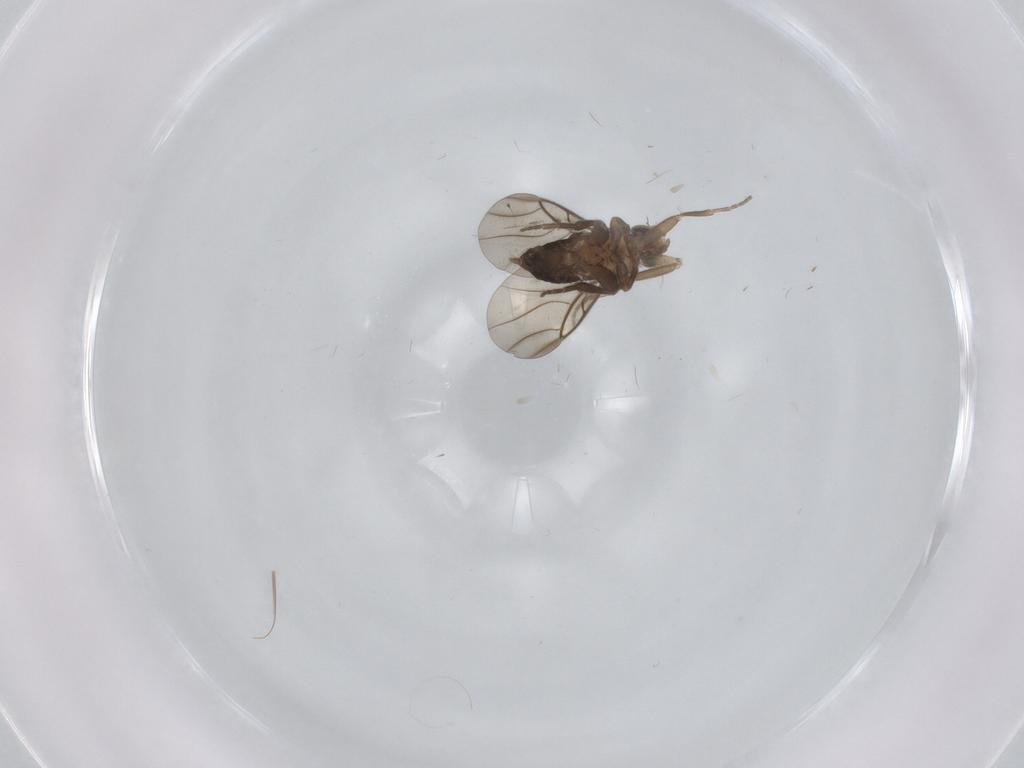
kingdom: Animalia
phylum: Arthropoda
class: Insecta
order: Diptera
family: Phoridae
